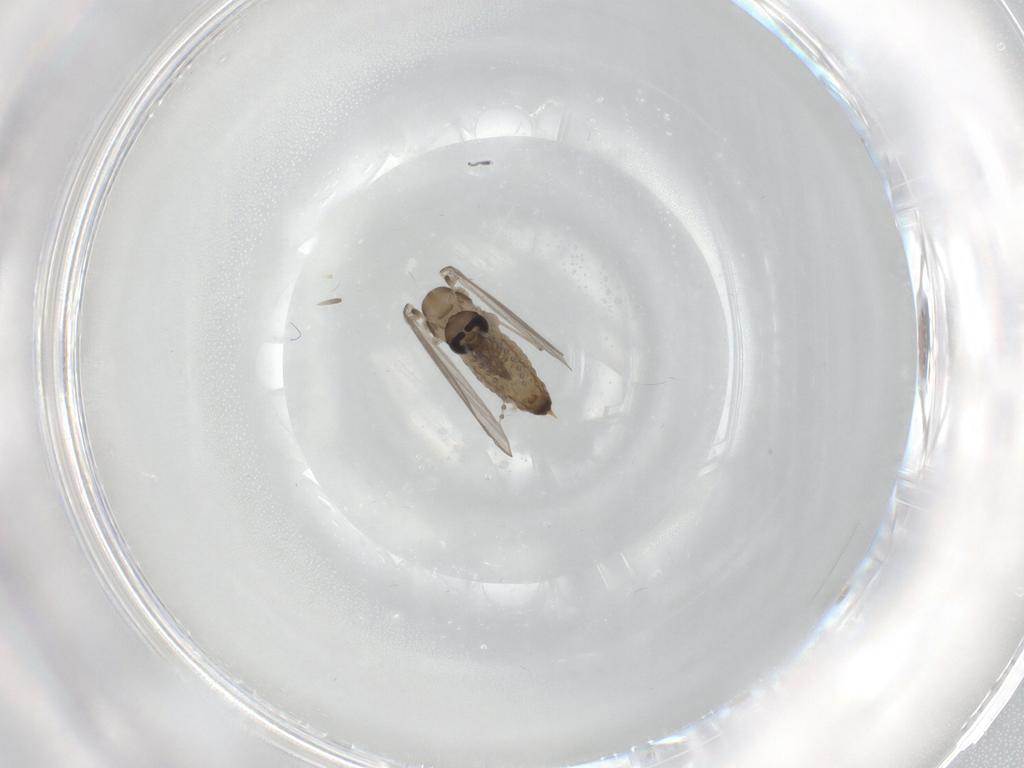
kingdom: Animalia
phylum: Arthropoda
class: Insecta
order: Diptera
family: Psychodidae
